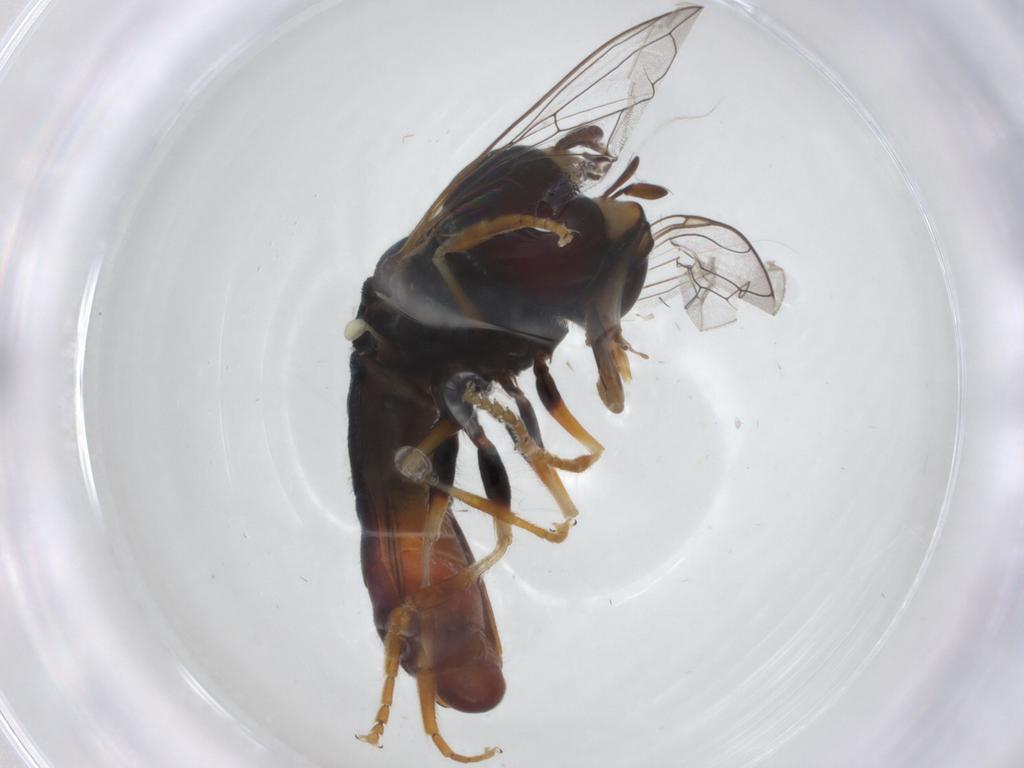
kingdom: Animalia
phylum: Arthropoda
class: Insecta
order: Diptera
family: Syrphidae
